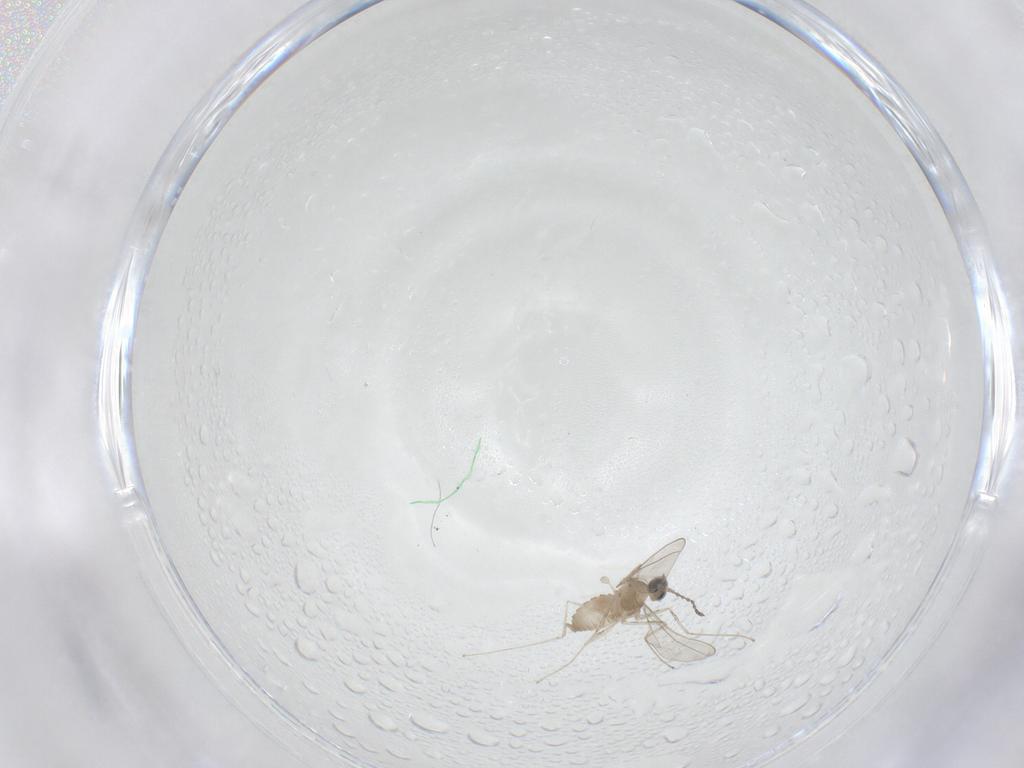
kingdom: Animalia
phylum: Arthropoda
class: Insecta
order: Diptera
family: Cecidomyiidae
